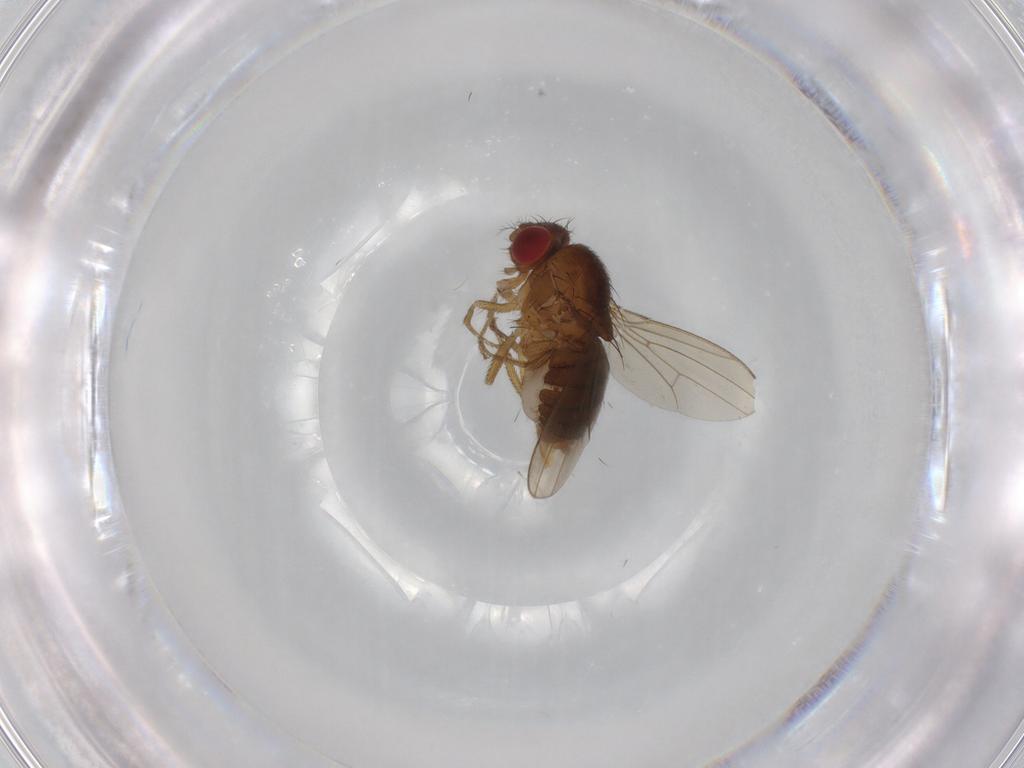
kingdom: Animalia
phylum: Arthropoda
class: Insecta
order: Diptera
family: Drosophilidae
